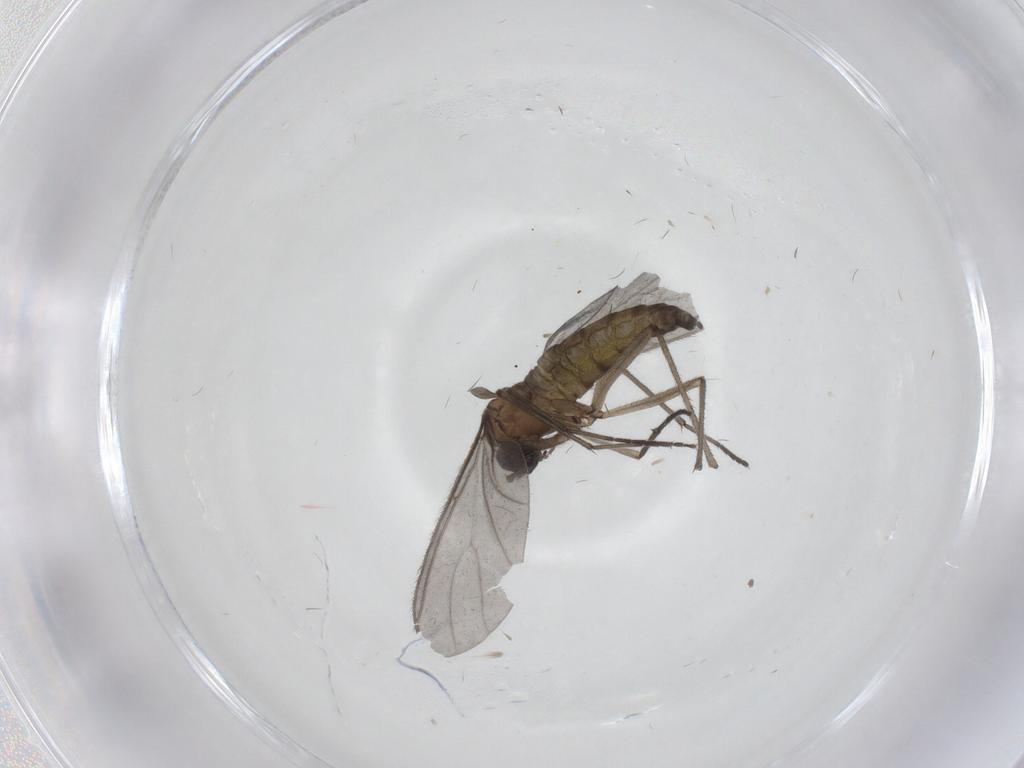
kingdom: Animalia
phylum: Arthropoda
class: Insecta
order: Diptera
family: Sciaridae
